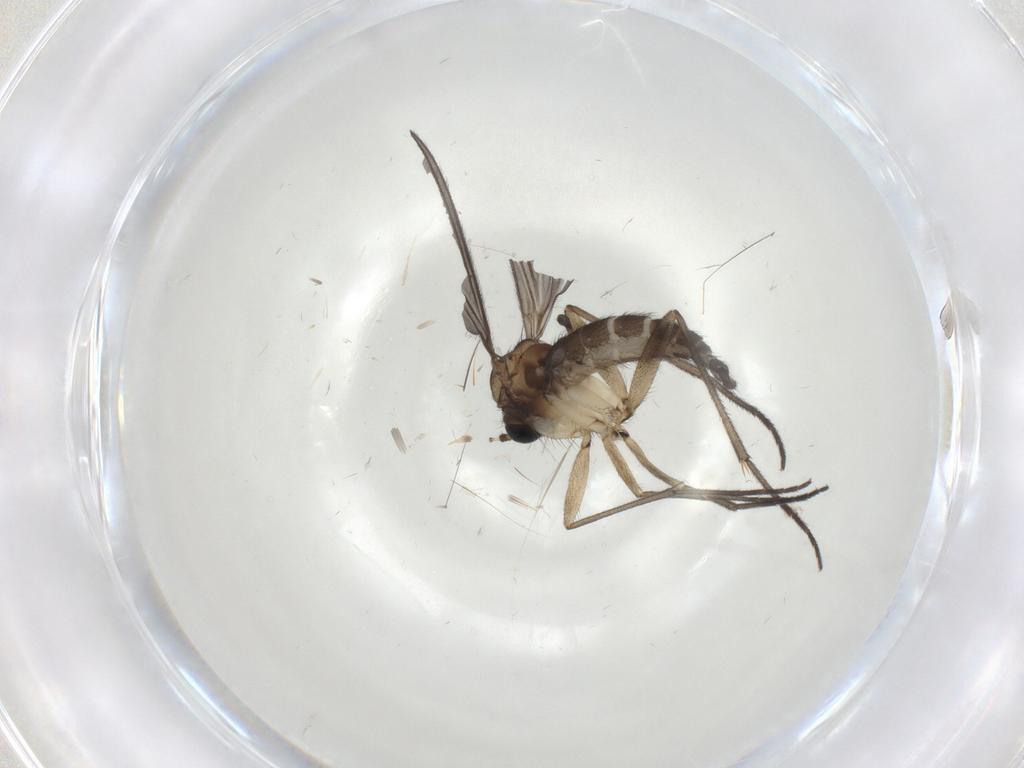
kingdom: Animalia
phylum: Arthropoda
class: Insecta
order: Diptera
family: Sciaridae
